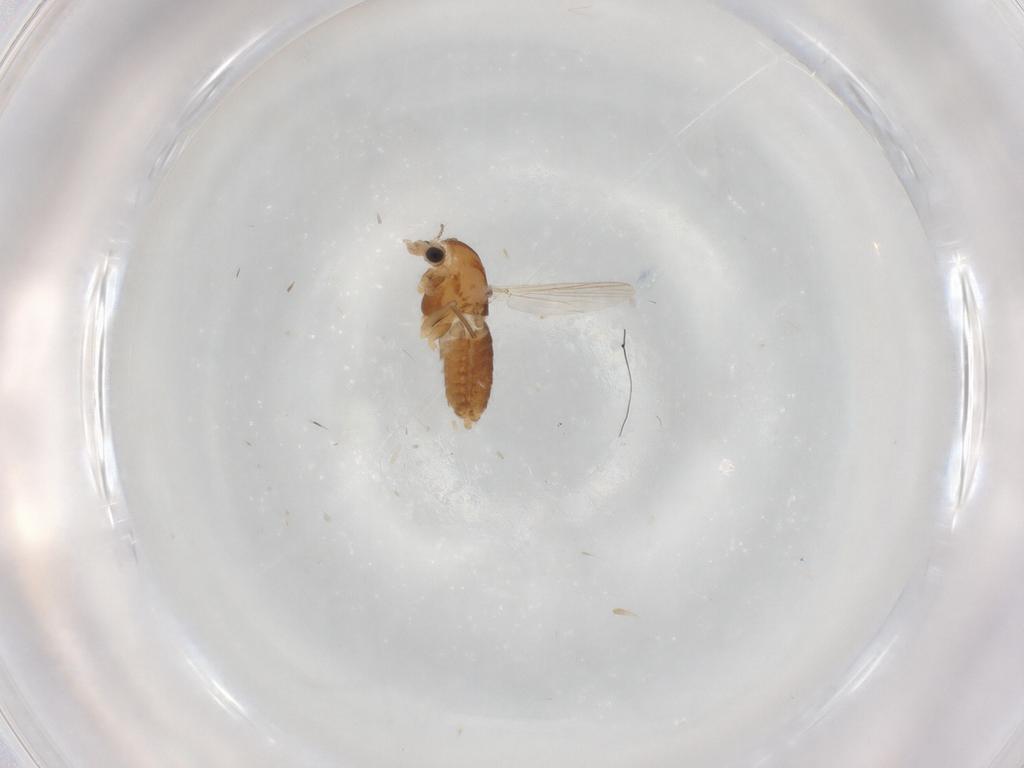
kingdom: Animalia
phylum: Arthropoda
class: Insecta
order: Diptera
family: Chironomidae
